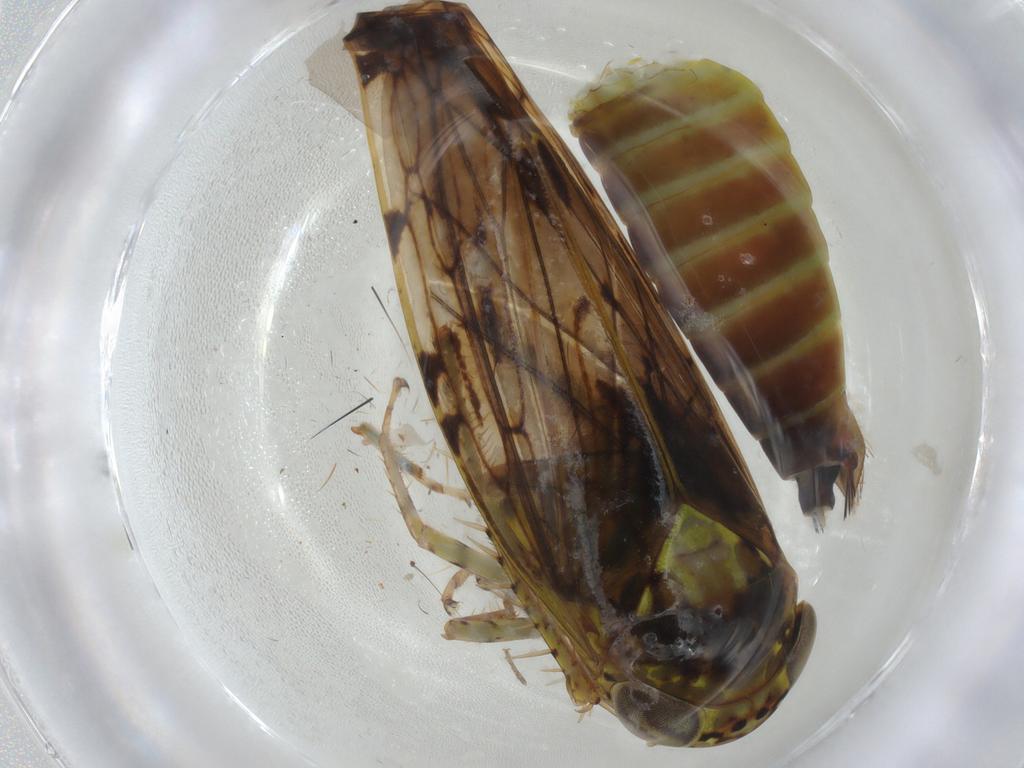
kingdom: Animalia
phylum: Arthropoda
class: Insecta
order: Hemiptera
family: Cicadellidae
